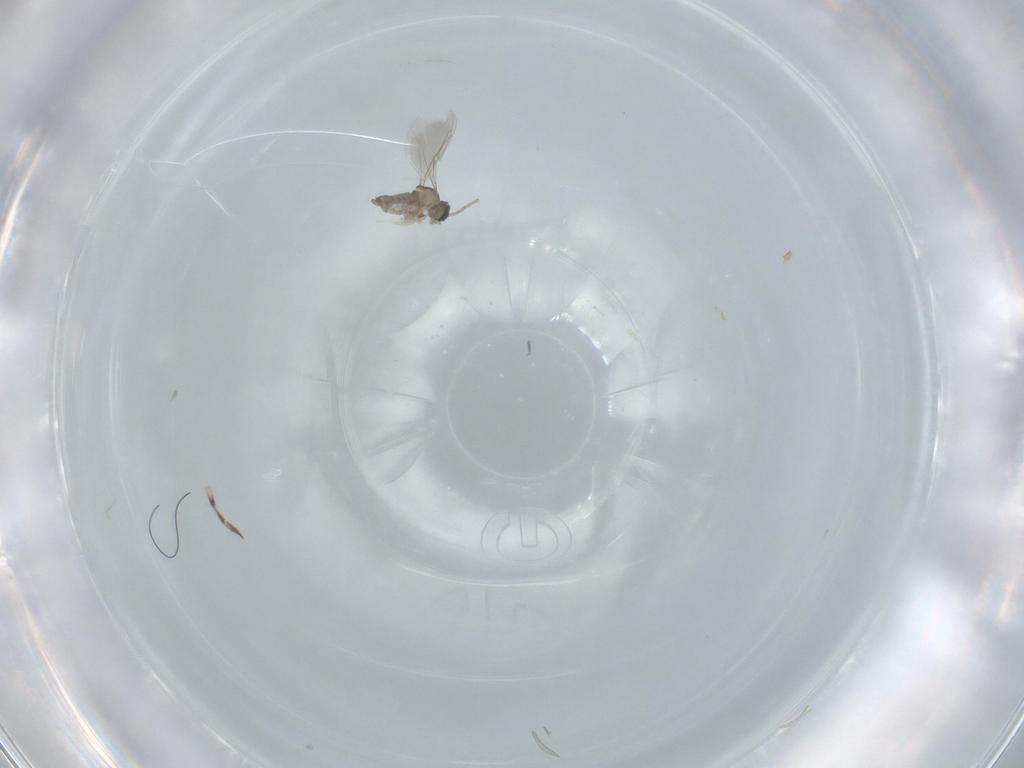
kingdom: Animalia
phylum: Arthropoda
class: Insecta
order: Diptera
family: Cecidomyiidae
